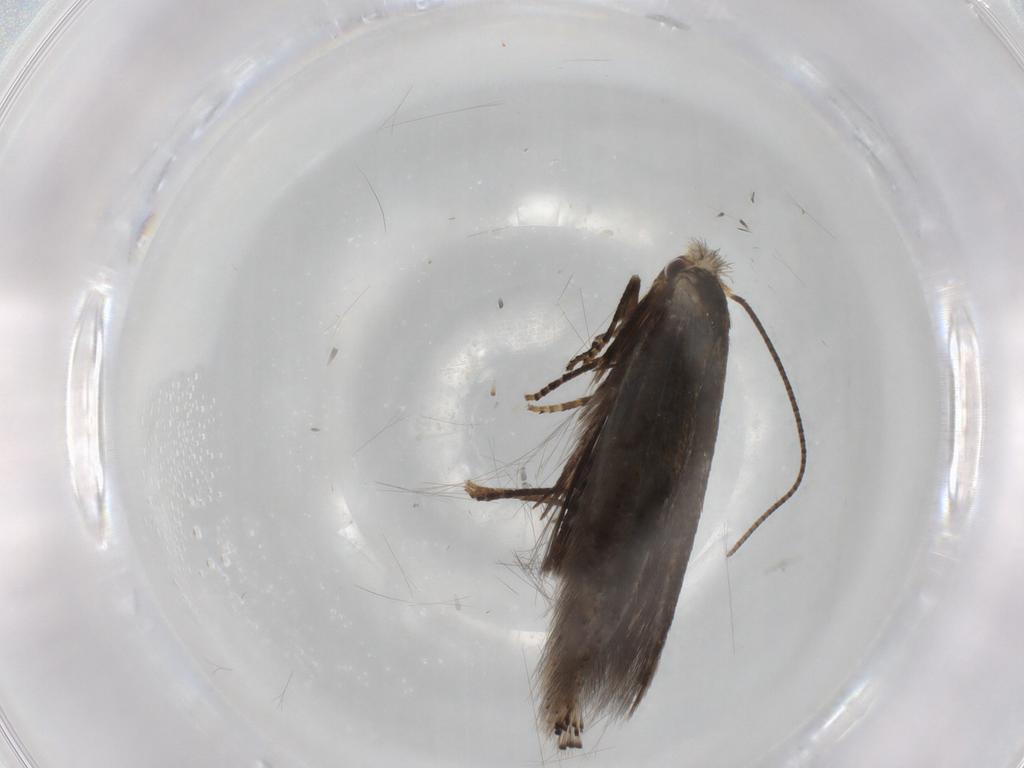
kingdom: Animalia
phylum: Arthropoda
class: Insecta
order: Lepidoptera
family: Bucculatricidae
